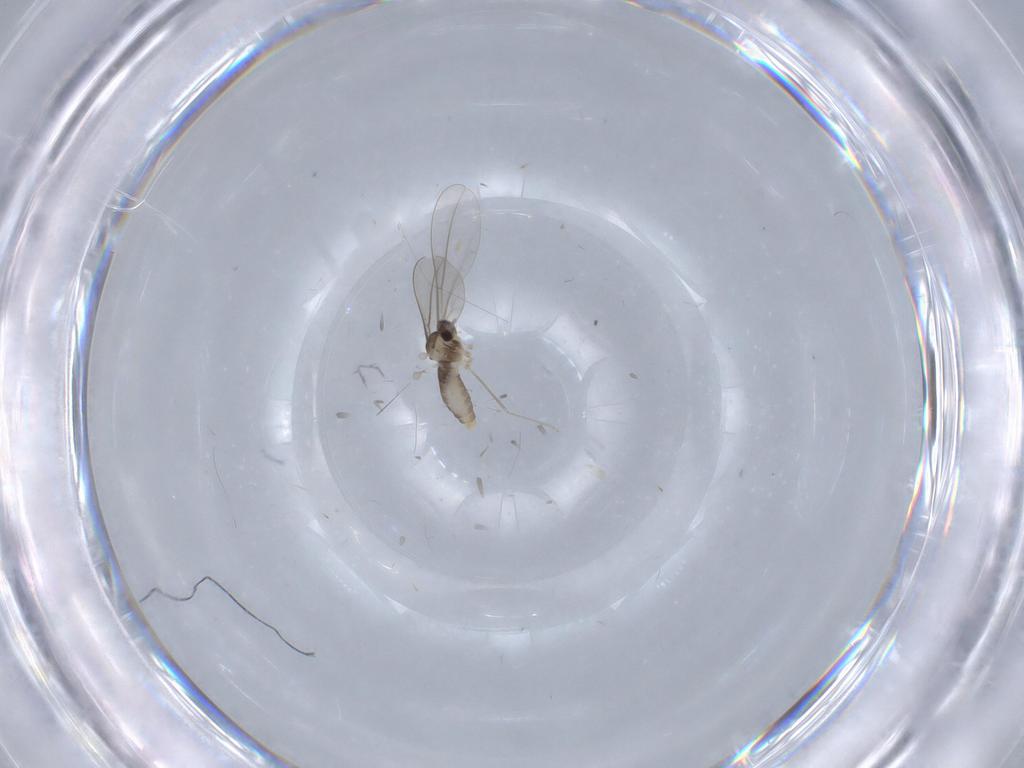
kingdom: Animalia
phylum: Arthropoda
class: Insecta
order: Diptera
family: Cecidomyiidae
